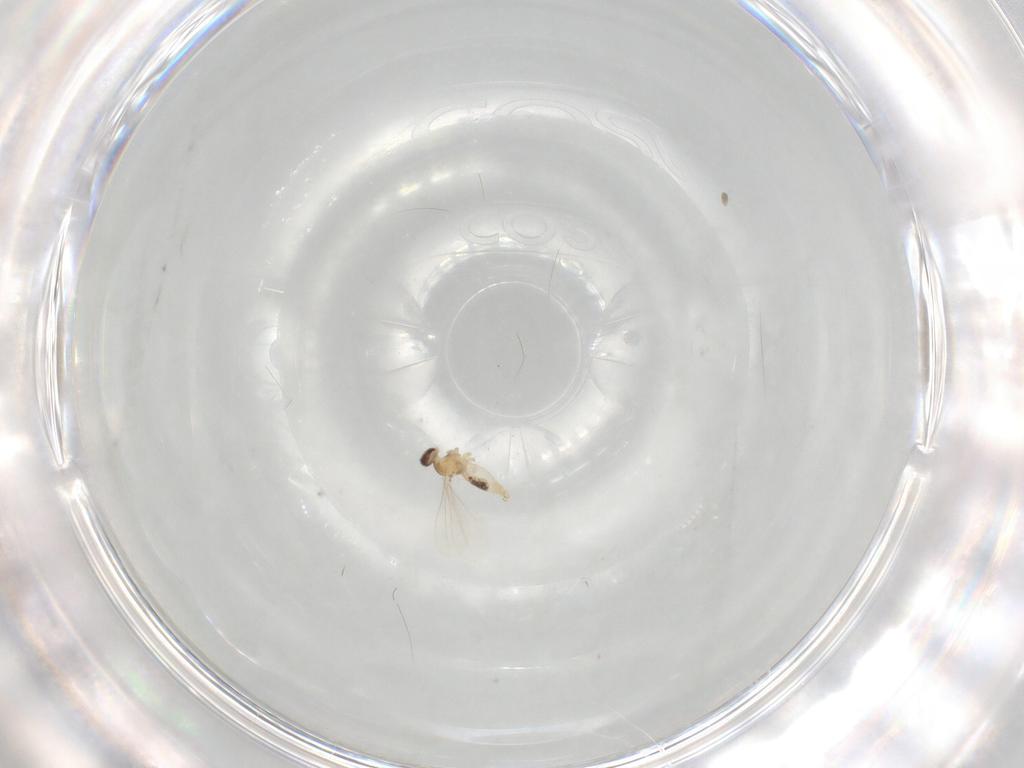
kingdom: Animalia
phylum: Arthropoda
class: Insecta
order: Diptera
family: Cecidomyiidae
